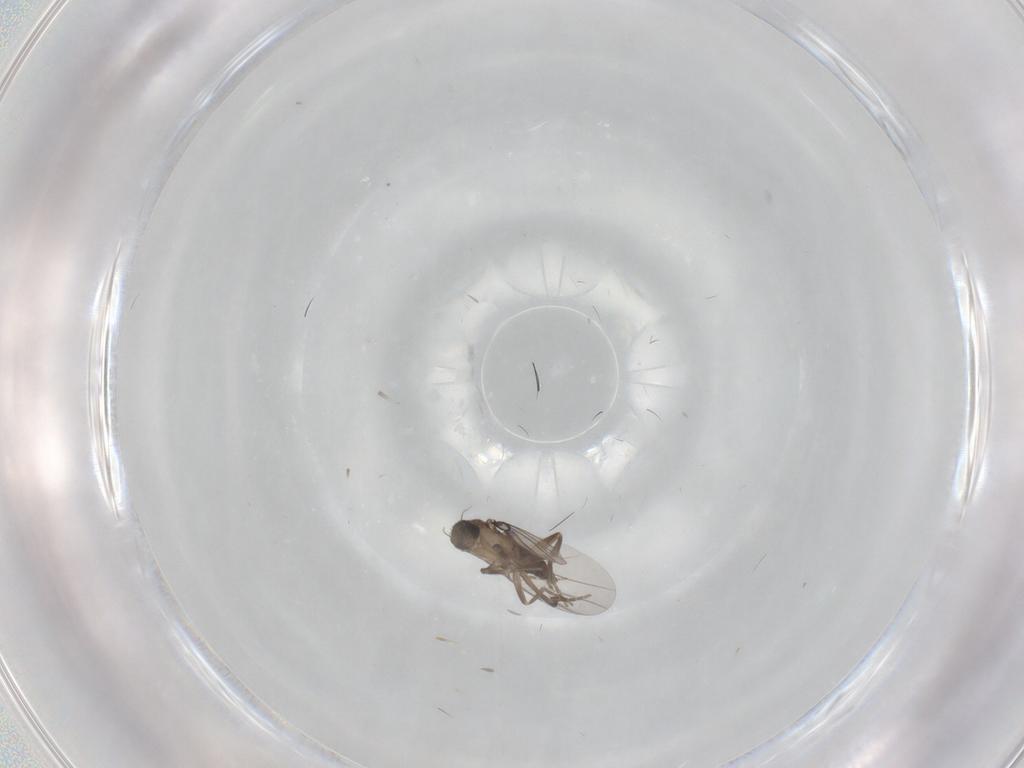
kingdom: Animalia
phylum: Arthropoda
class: Insecta
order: Diptera
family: Phoridae
